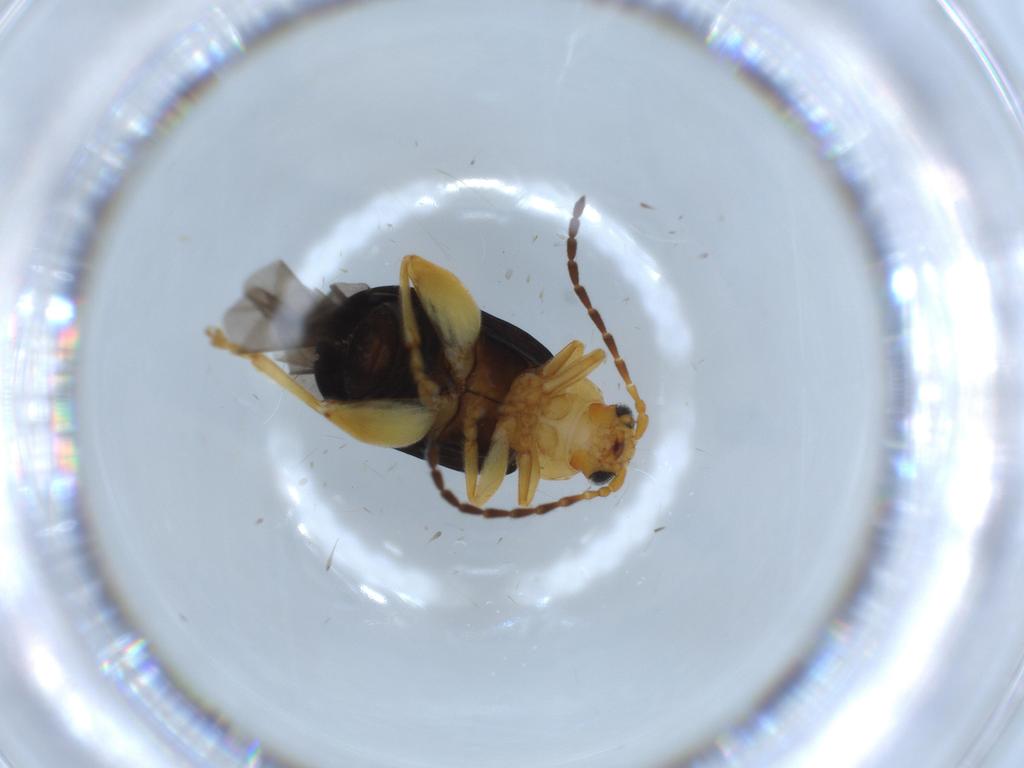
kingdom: Animalia
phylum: Arthropoda
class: Insecta
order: Coleoptera
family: Chrysomelidae
